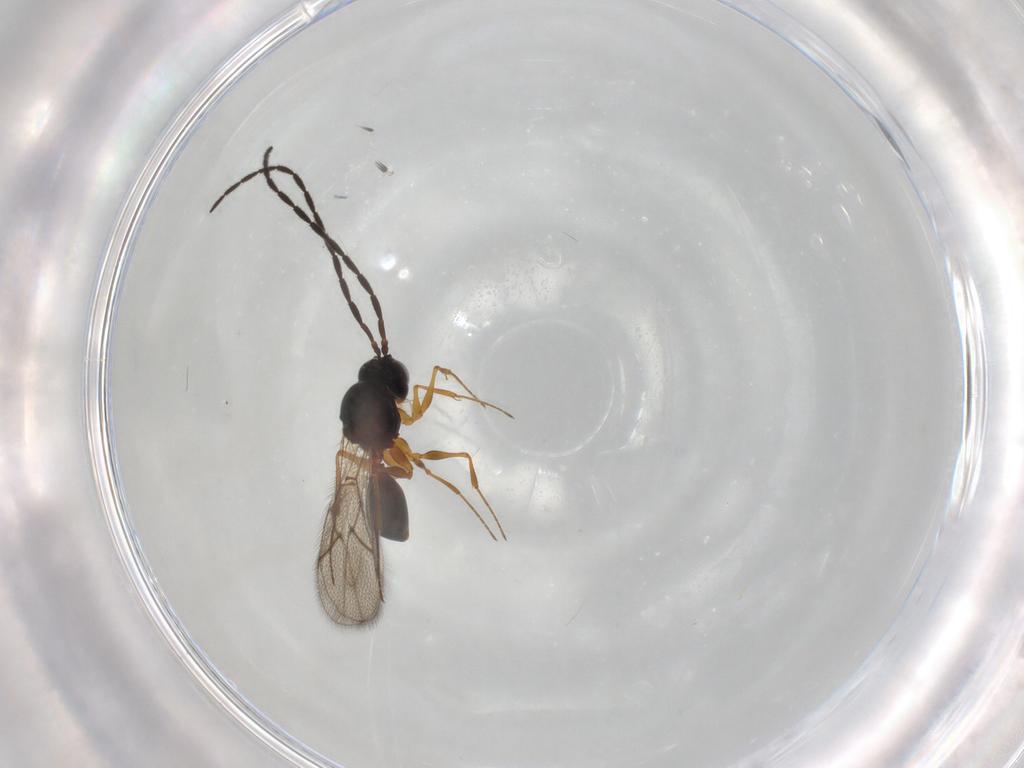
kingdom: Animalia
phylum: Arthropoda
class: Insecta
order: Hymenoptera
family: Figitidae
